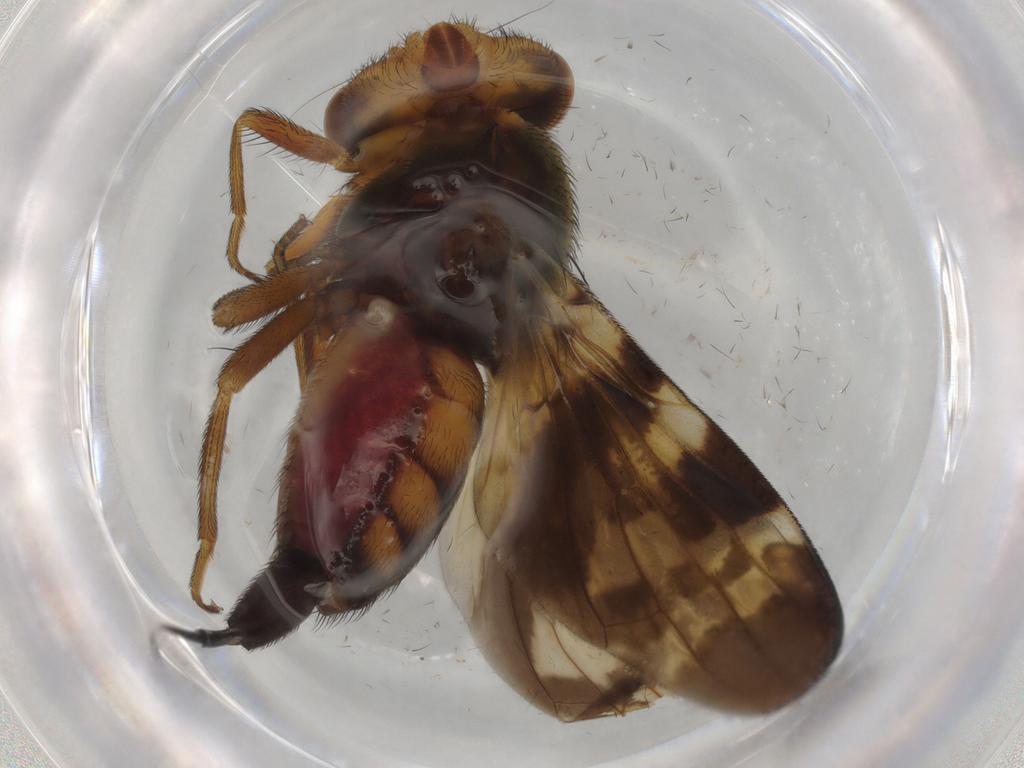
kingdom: Animalia
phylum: Arthropoda
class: Insecta
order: Diptera
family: Ulidiidae
